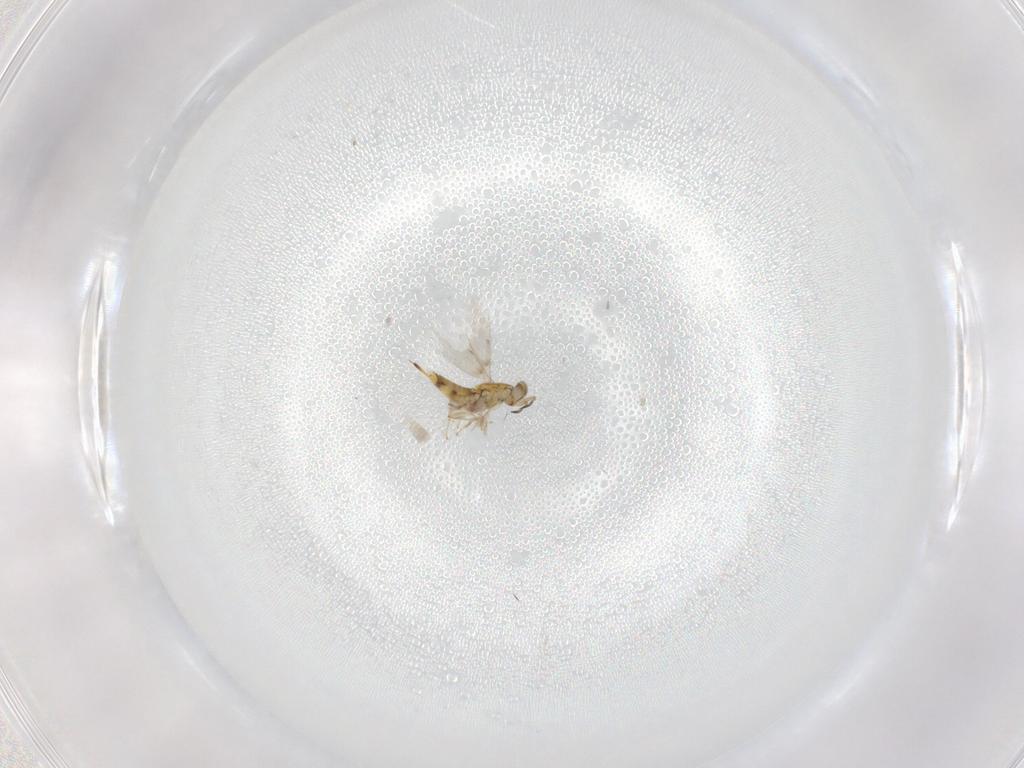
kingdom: Animalia
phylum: Arthropoda
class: Insecta
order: Hymenoptera
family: Aphelinidae
